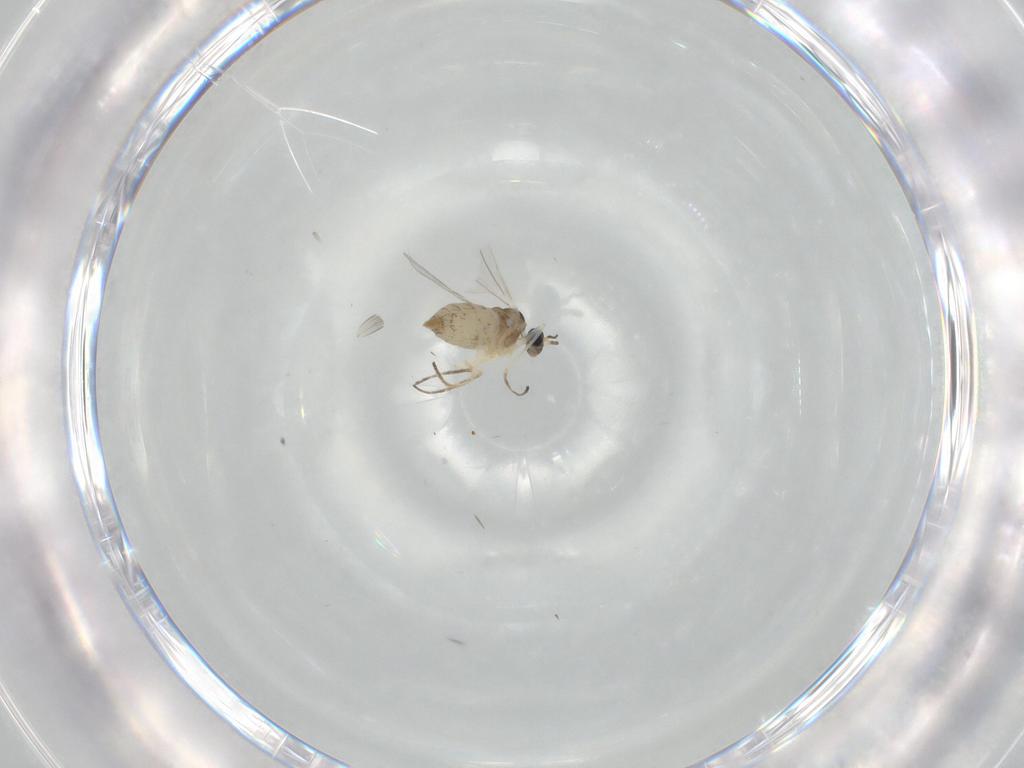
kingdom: Animalia
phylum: Arthropoda
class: Insecta
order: Diptera
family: Cecidomyiidae
